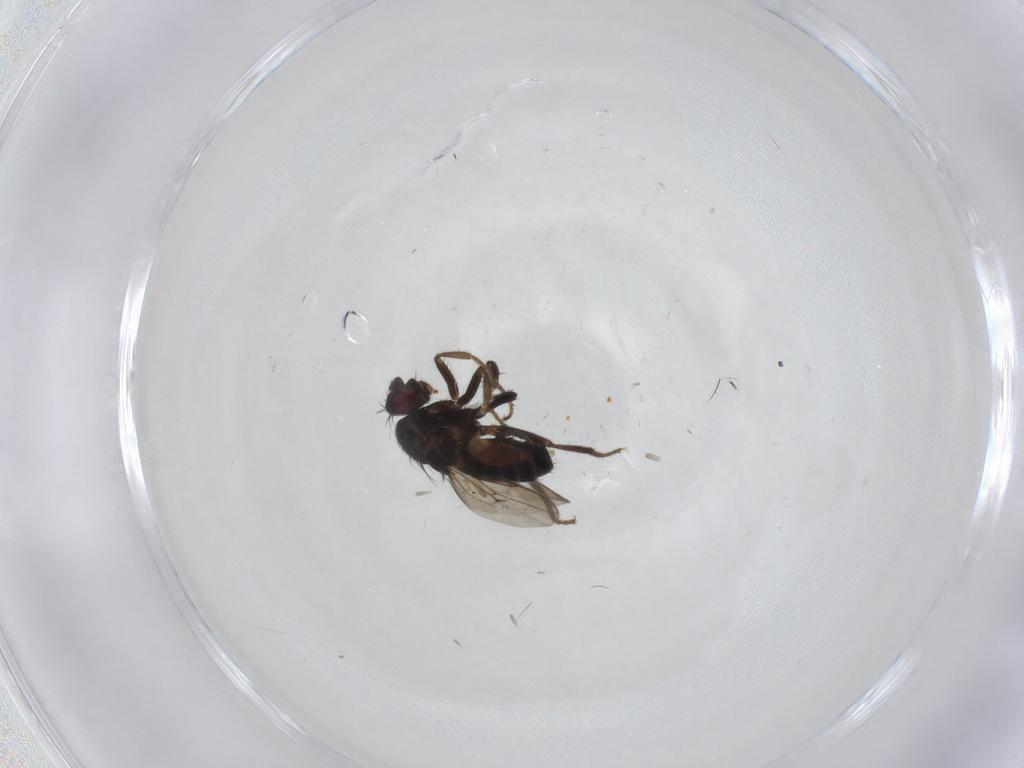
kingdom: Animalia
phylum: Arthropoda
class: Insecta
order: Diptera
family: Cecidomyiidae
